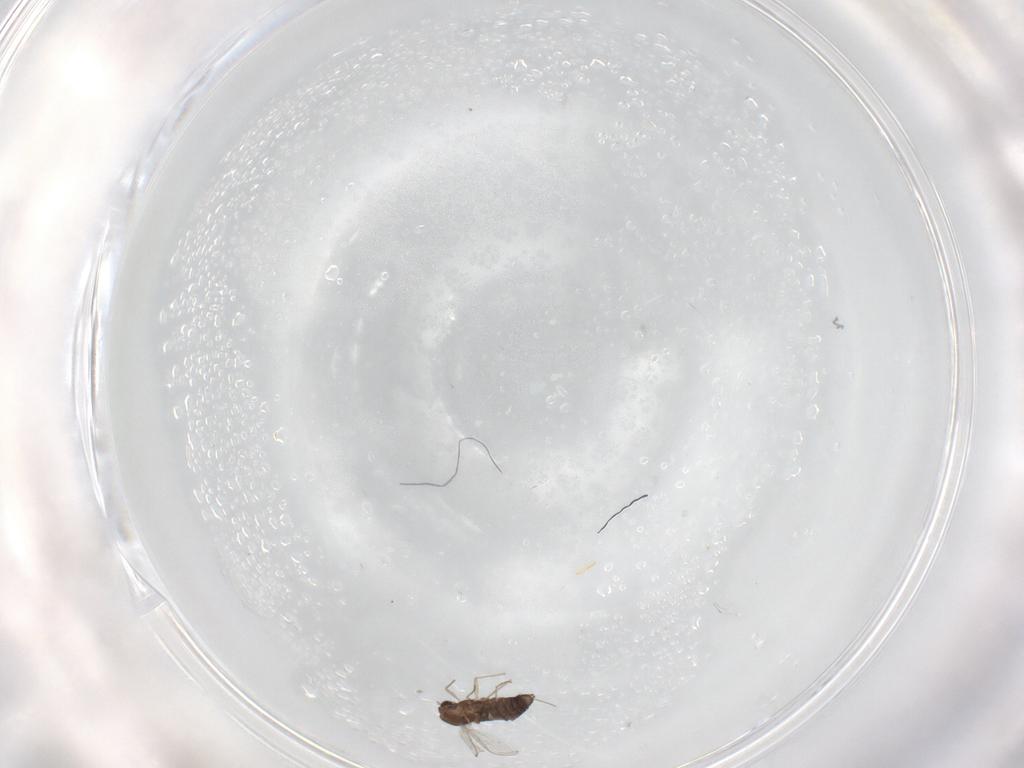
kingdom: Animalia
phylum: Arthropoda
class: Insecta
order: Diptera
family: Chironomidae
